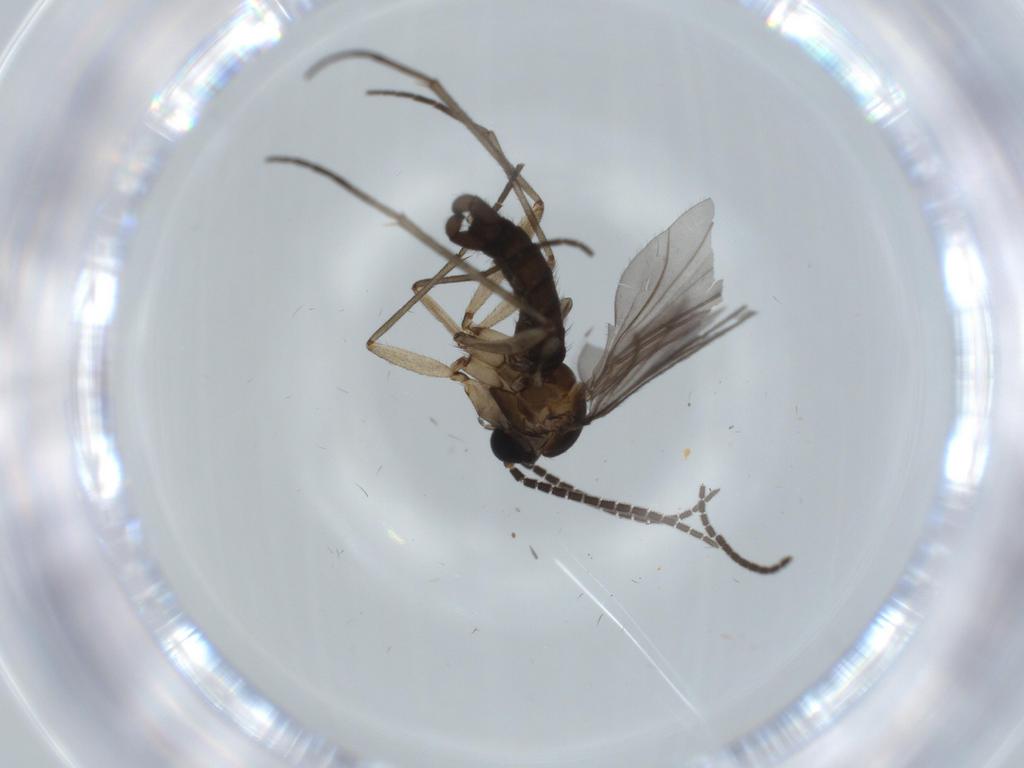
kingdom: Animalia
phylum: Arthropoda
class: Insecta
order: Diptera
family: Sciaridae
